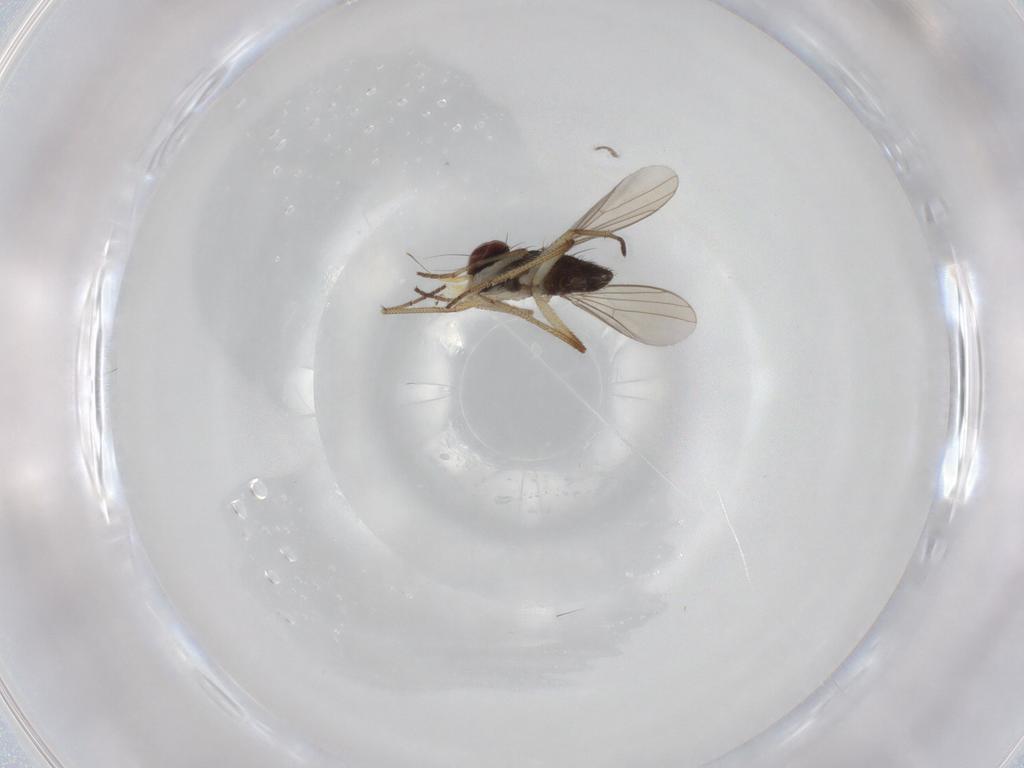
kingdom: Animalia
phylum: Arthropoda
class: Insecta
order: Diptera
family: Dolichopodidae
